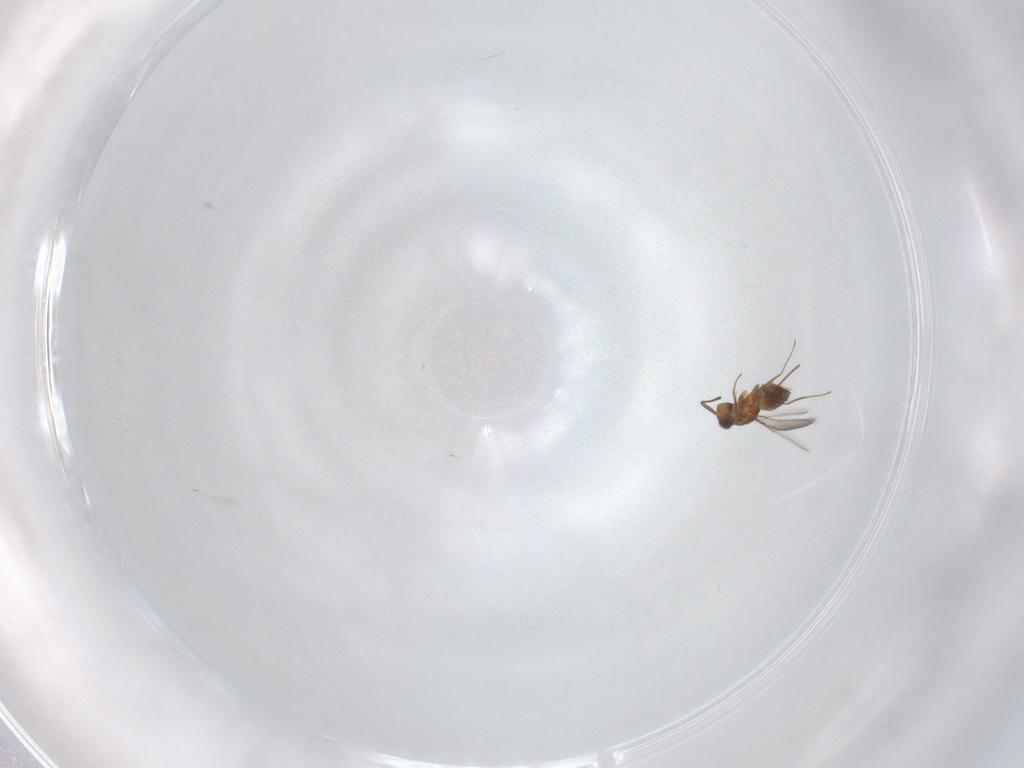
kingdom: Animalia
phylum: Arthropoda
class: Insecta
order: Hymenoptera
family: Mymaridae
